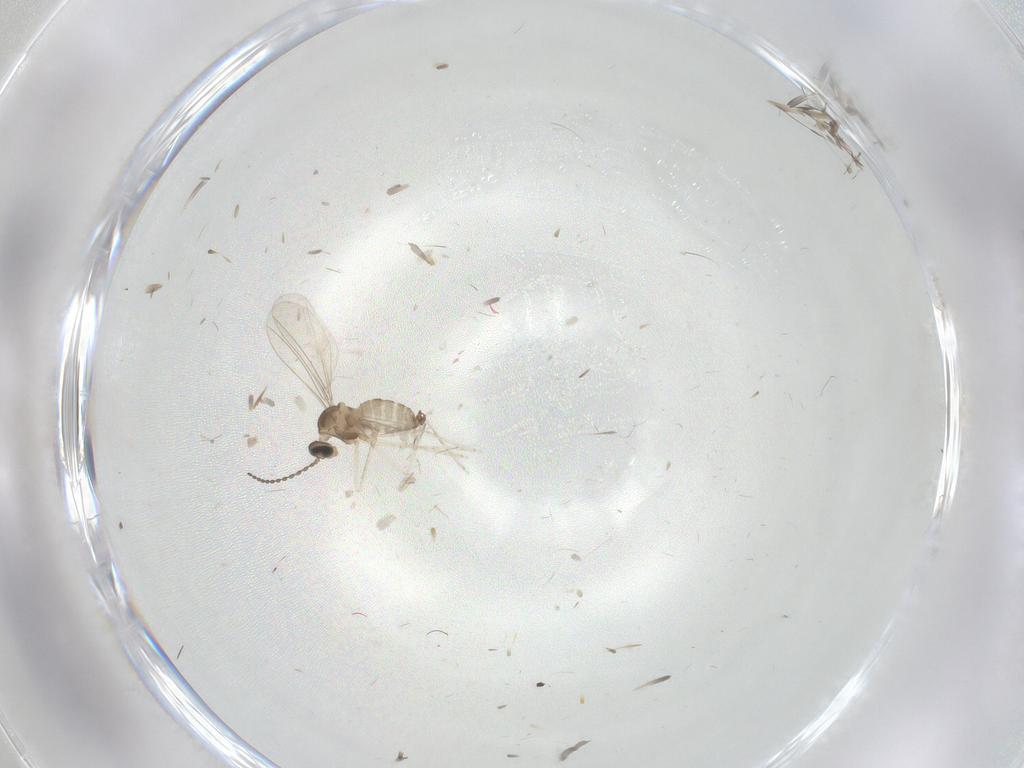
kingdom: Animalia
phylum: Arthropoda
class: Insecta
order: Diptera
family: Cecidomyiidae
